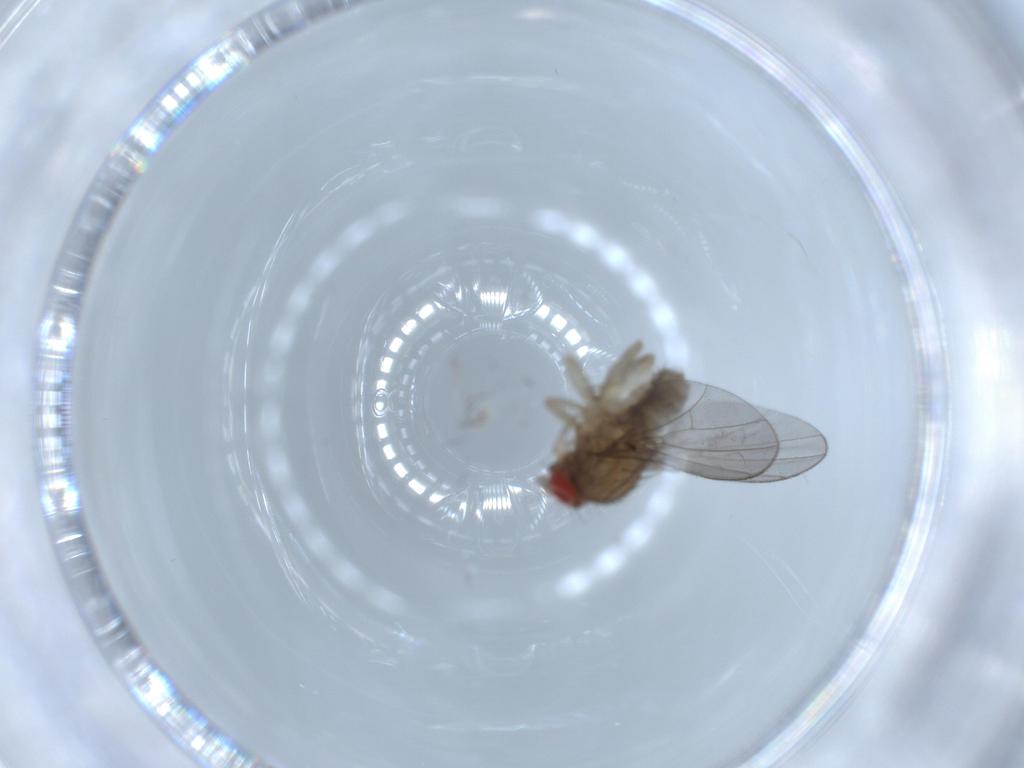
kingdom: Animalia
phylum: Arthropoda
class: Insecta
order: Diptera
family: Drosophilidae
